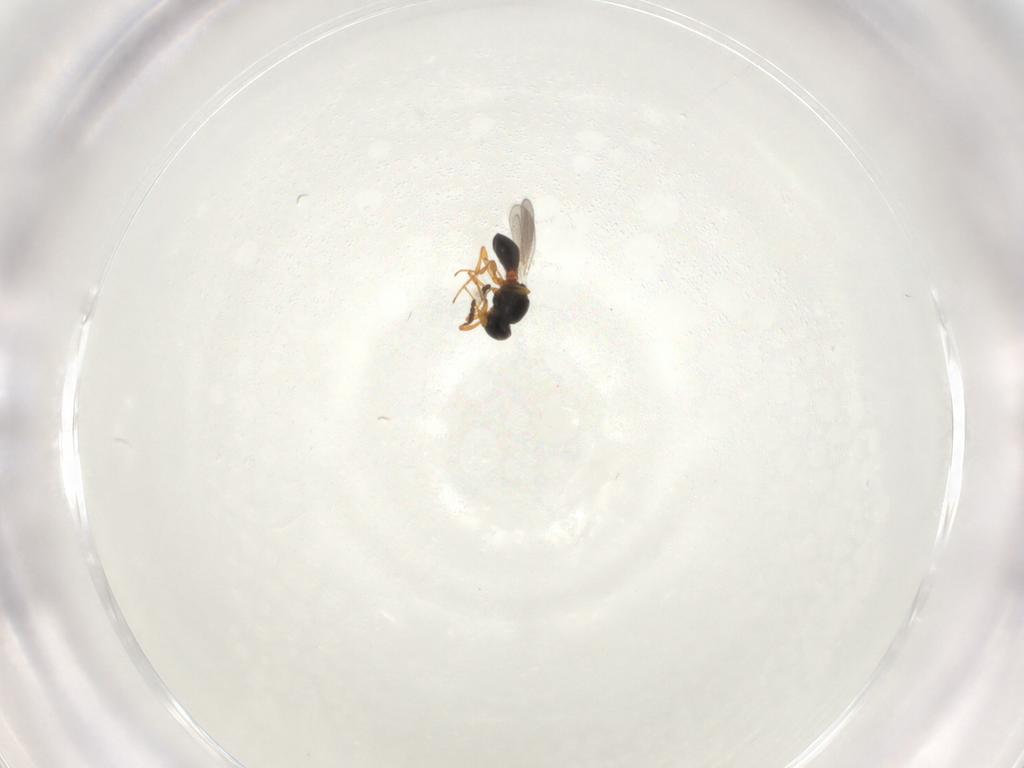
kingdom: Animalia
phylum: Arthropoda
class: Insecta
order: Hymenoptera
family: Platygastridae
